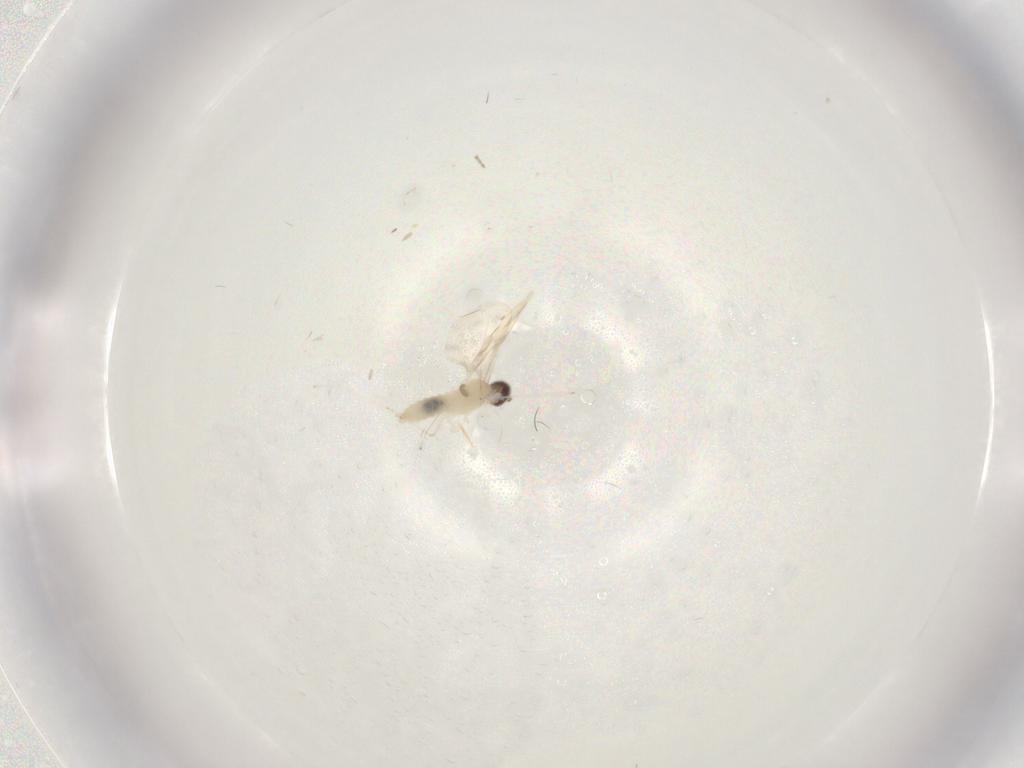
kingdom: Animalia
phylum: Arthropoda
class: Insecta
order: Diptera
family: Cecidomyiidae
